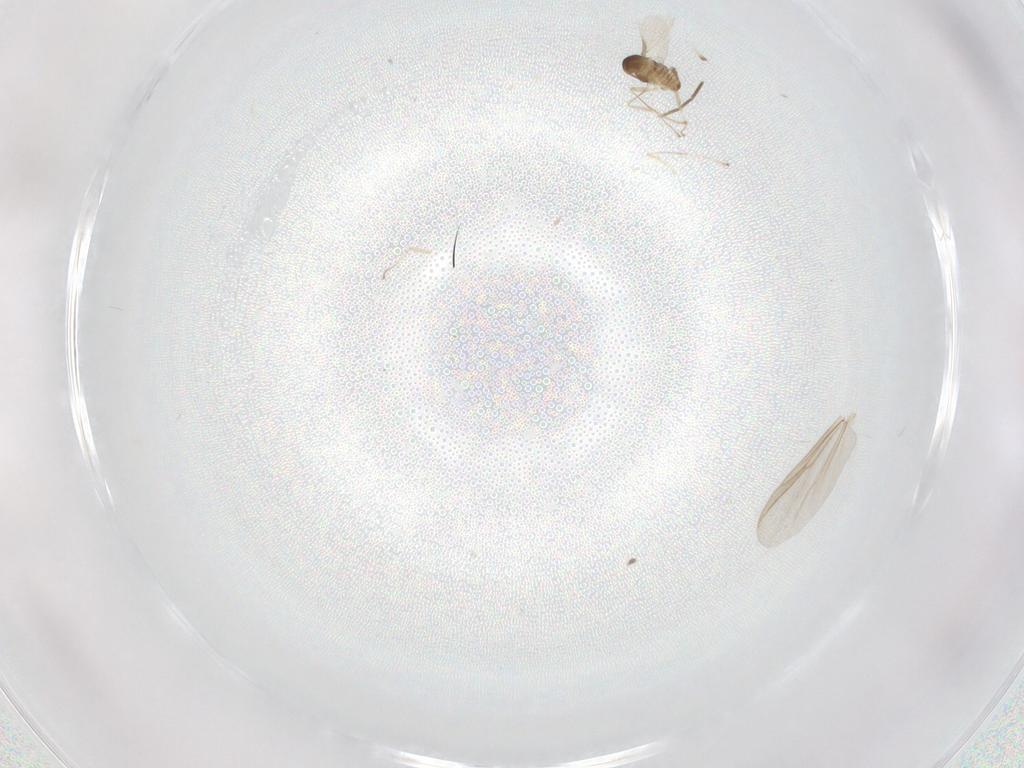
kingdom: Animalia
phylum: Arthropoda
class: Insecta
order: Diptera
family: Cecidomyiidae
